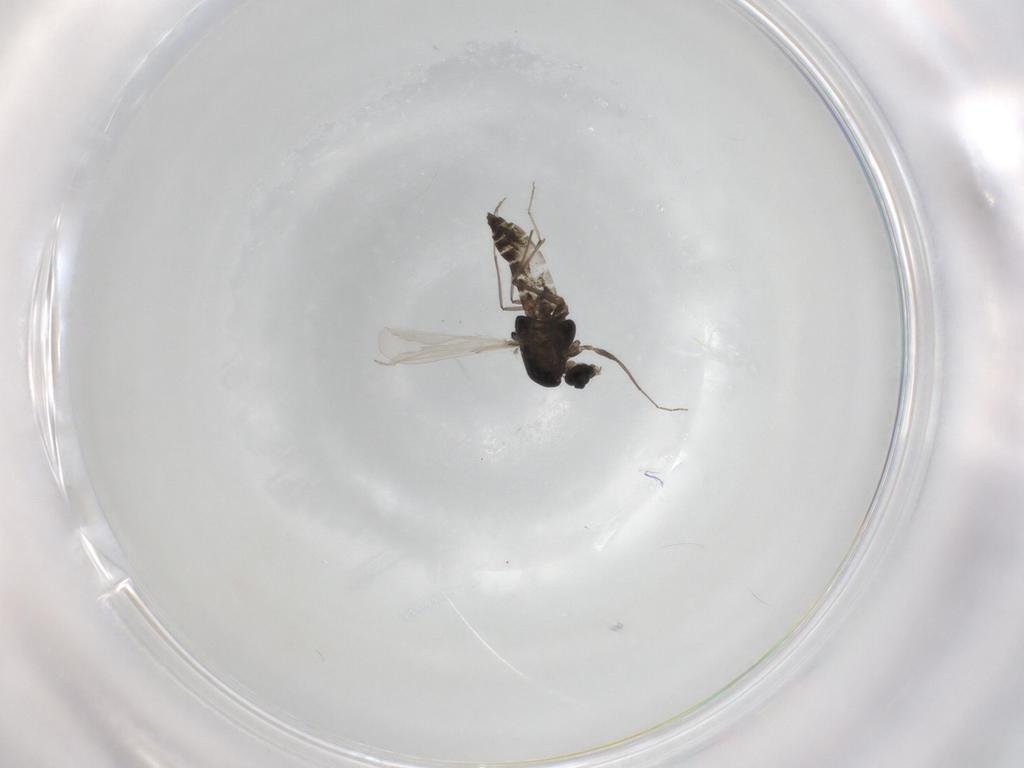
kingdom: Animalia
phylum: Arthropoda
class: Insecta
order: Diptera
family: Chironomidae
